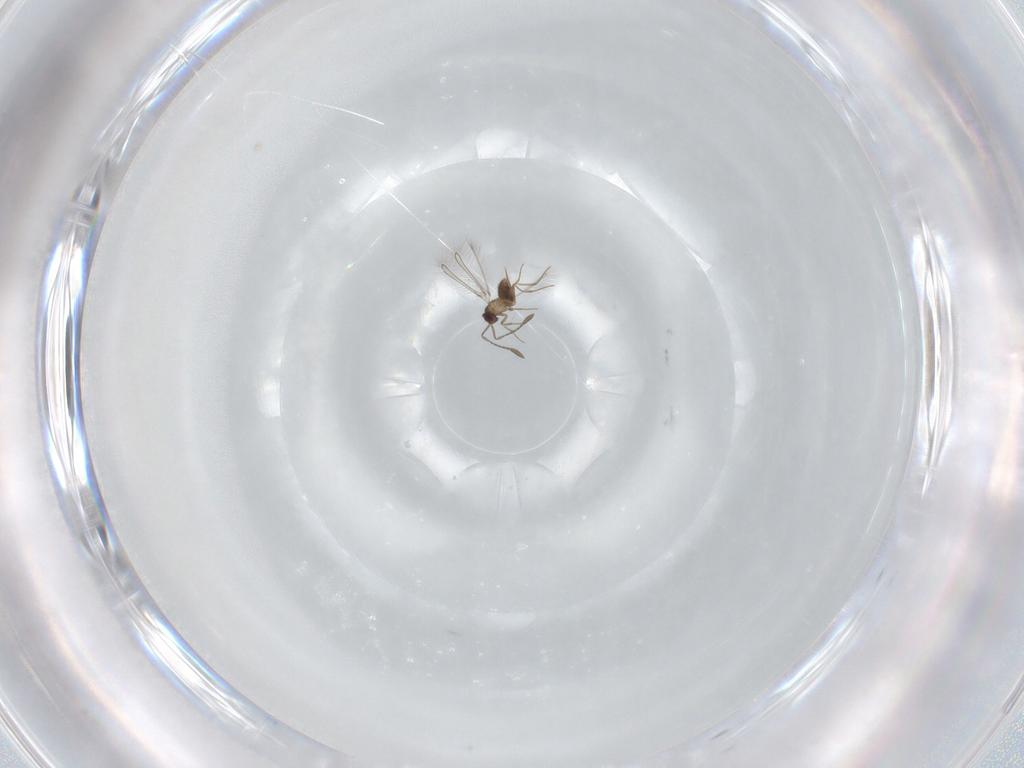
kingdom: Animalia
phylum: Arthropoda
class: Insecta
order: Hymenoptera
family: Mymaridae
